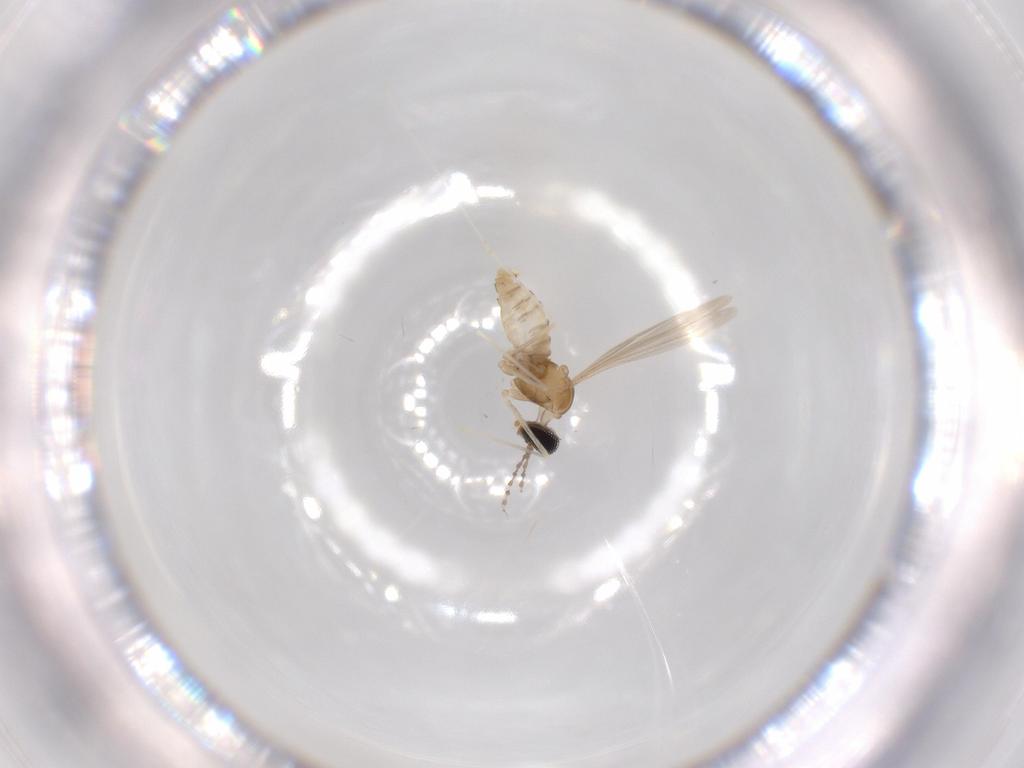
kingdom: Animalia
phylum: Arthropoda
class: Insecta
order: Diptera
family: Cecidomyiidae
